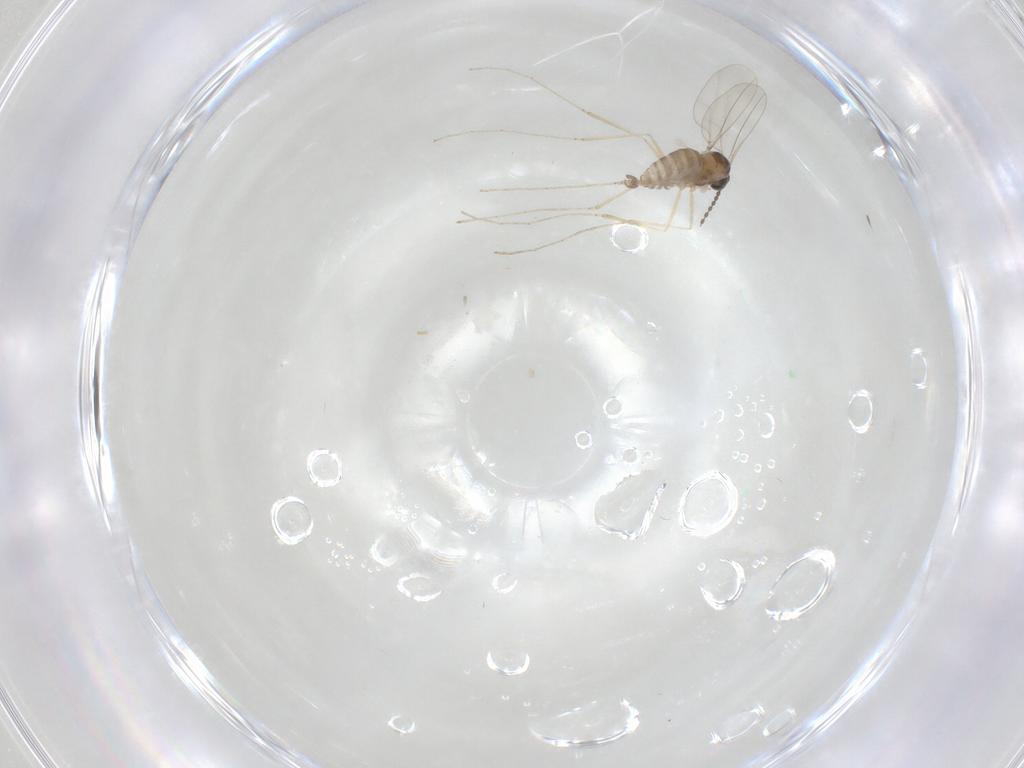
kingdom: Animalia
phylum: Arthropoda
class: Insecta
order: Diptera
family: Cecidomyiidae
